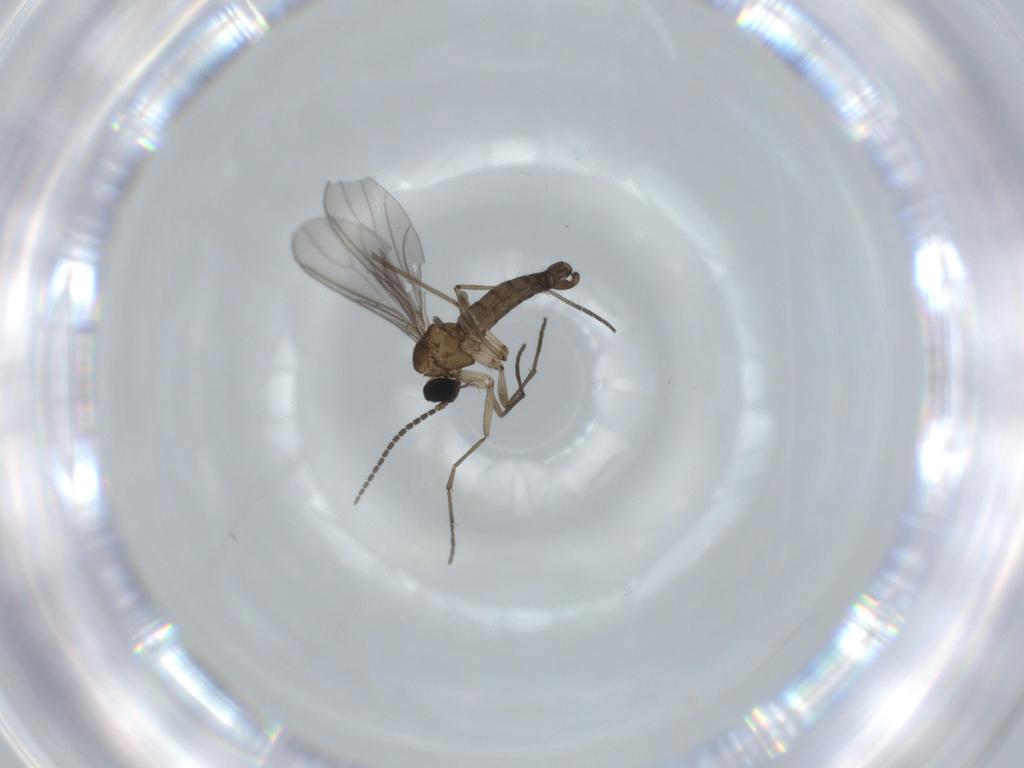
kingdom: Animalia
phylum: Arthropoda
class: Insecta
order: Diptera
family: Sciaridae
